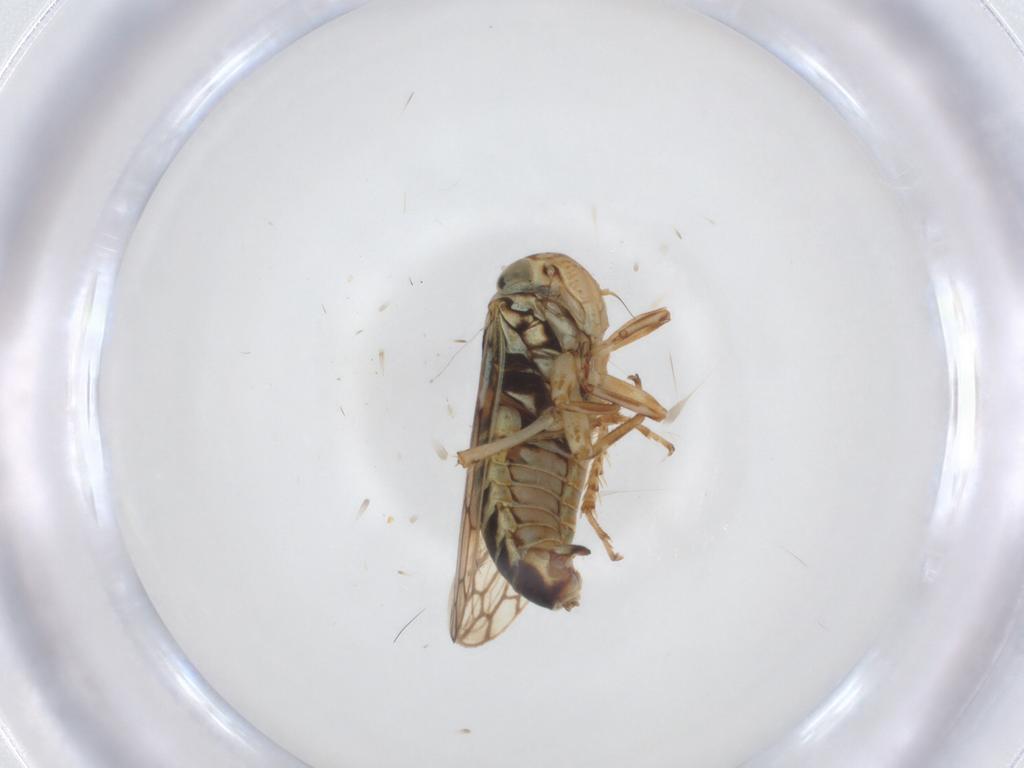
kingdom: Animalia
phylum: Arthropoda
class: Insecta
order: Hemiptera
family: Cicadellidae
